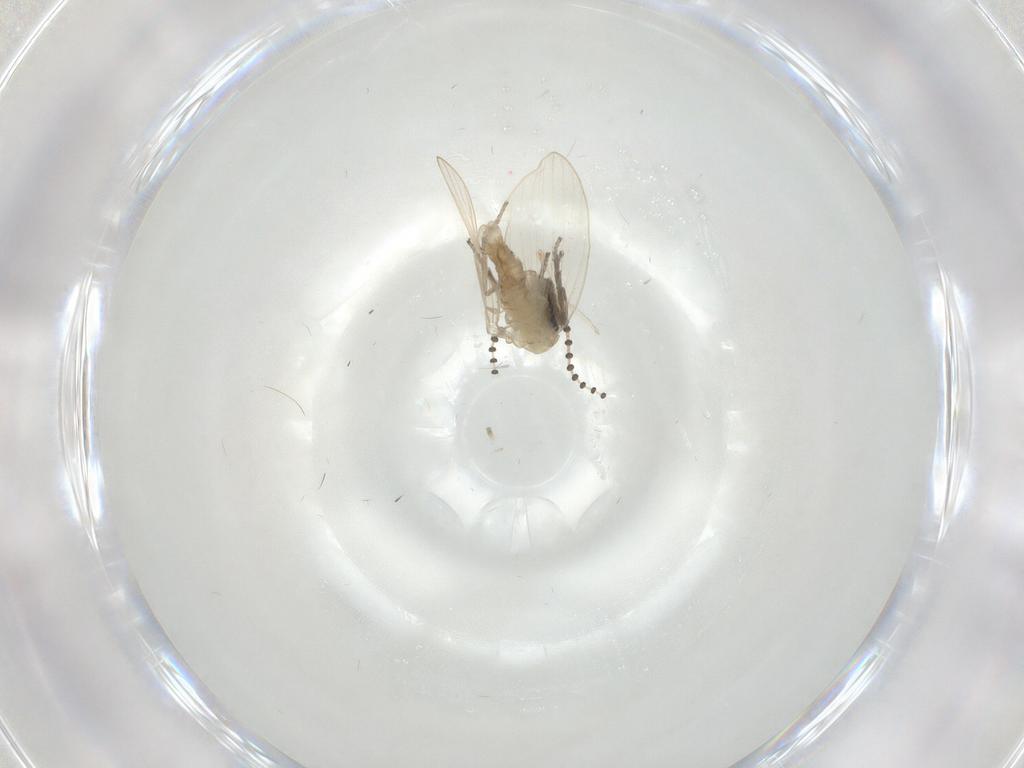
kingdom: Animalia
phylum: Arthropoda
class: Insecta
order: Diptera
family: Psychodidae
